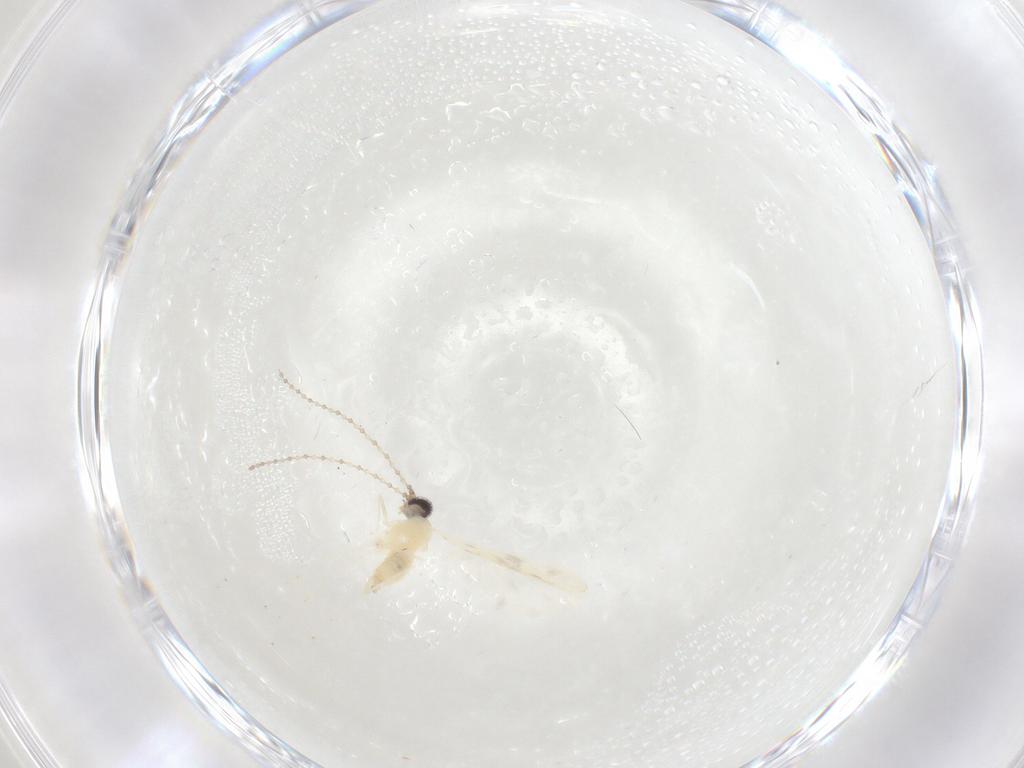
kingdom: Animalia
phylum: Arthropoda
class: Insecta
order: Diptera
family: Cecidomyiidae
